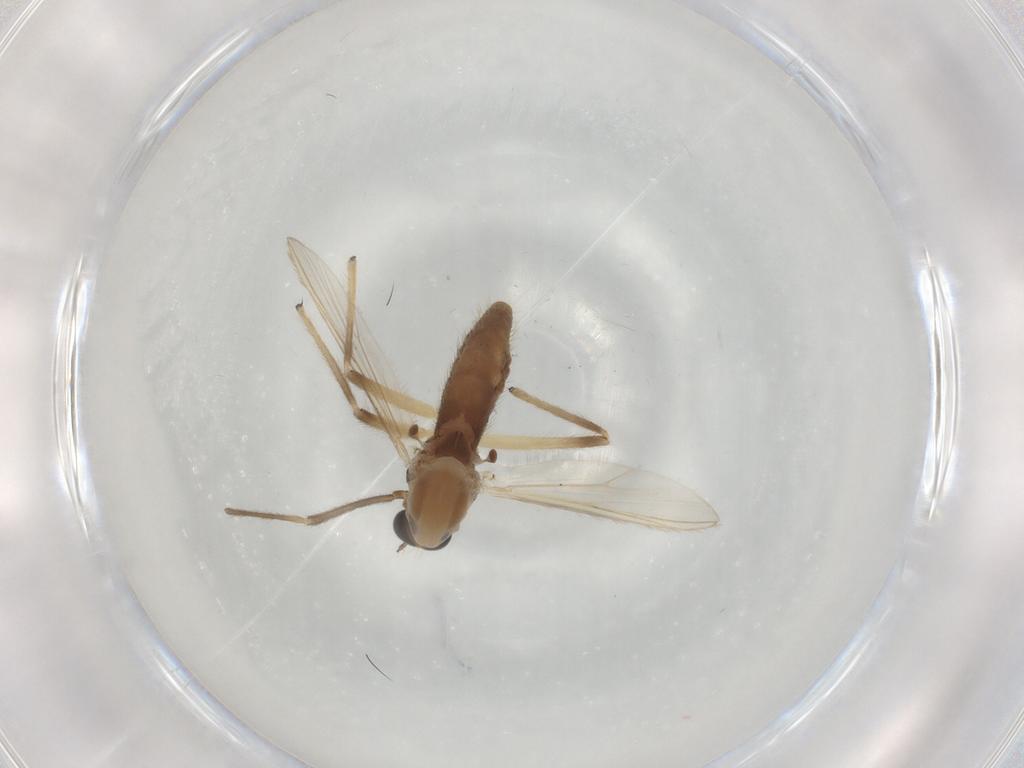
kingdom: Animalia
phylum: Arthropoda
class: Insecta
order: Diptera
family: Chironomidae
